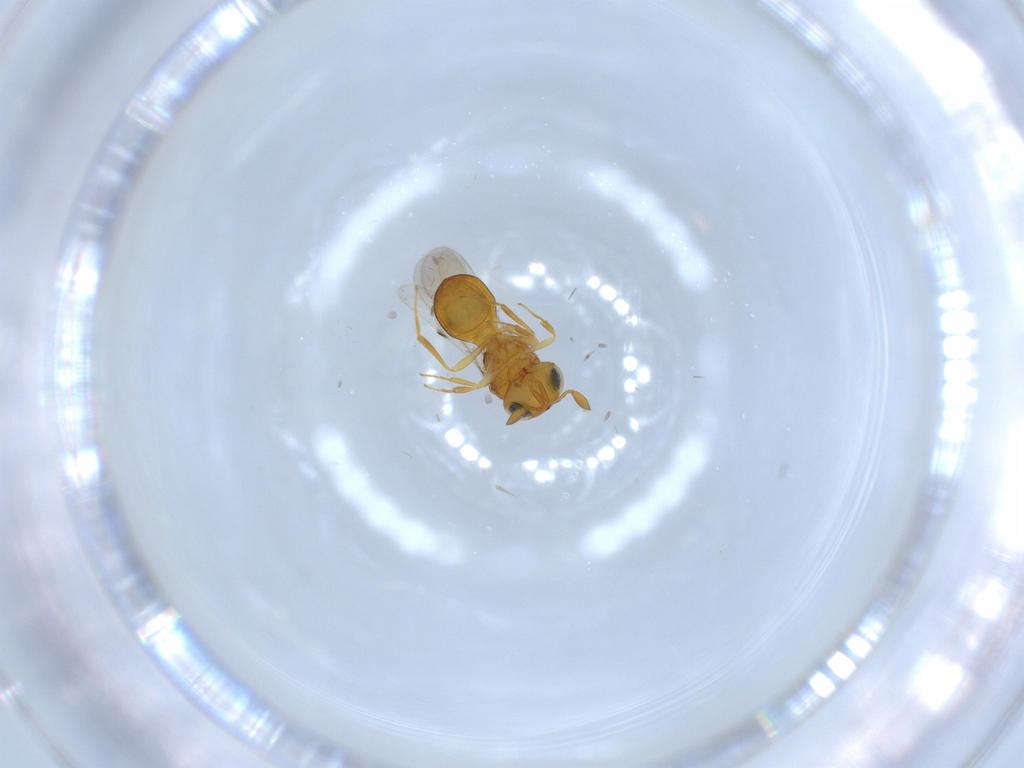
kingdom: Animalia
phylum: Arthropoda
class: Insecta
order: Hymenoptera
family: Scelionidae
